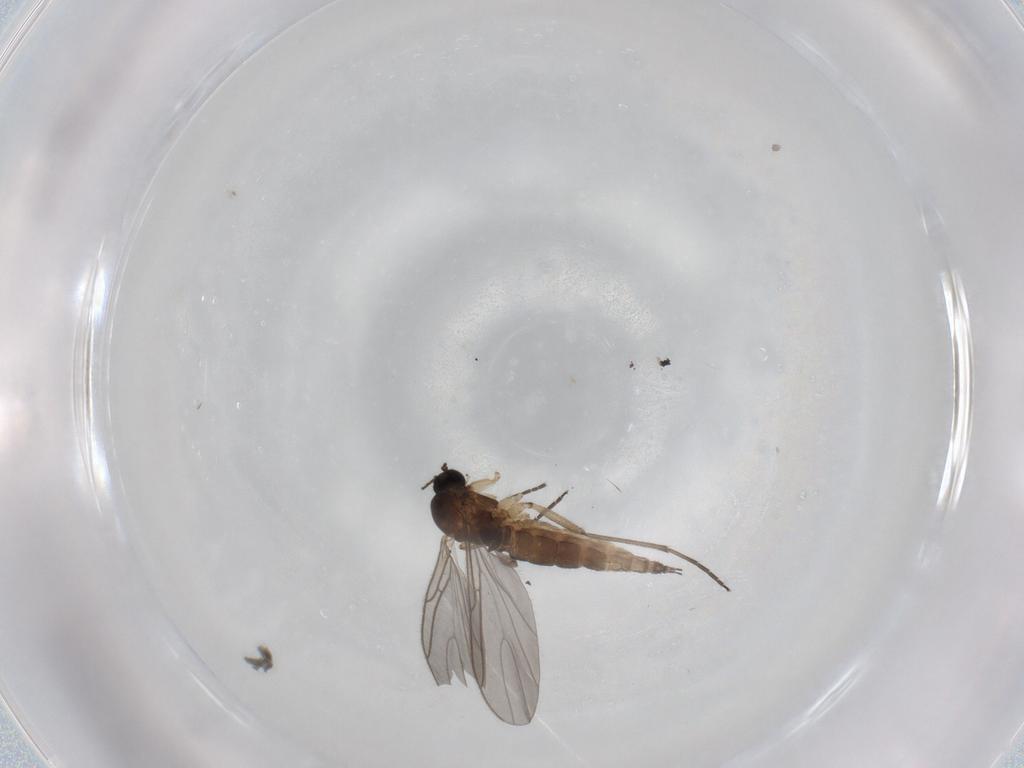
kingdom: Animalia
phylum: Arthropoda
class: Insecta
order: Diptera
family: Sciaridae
